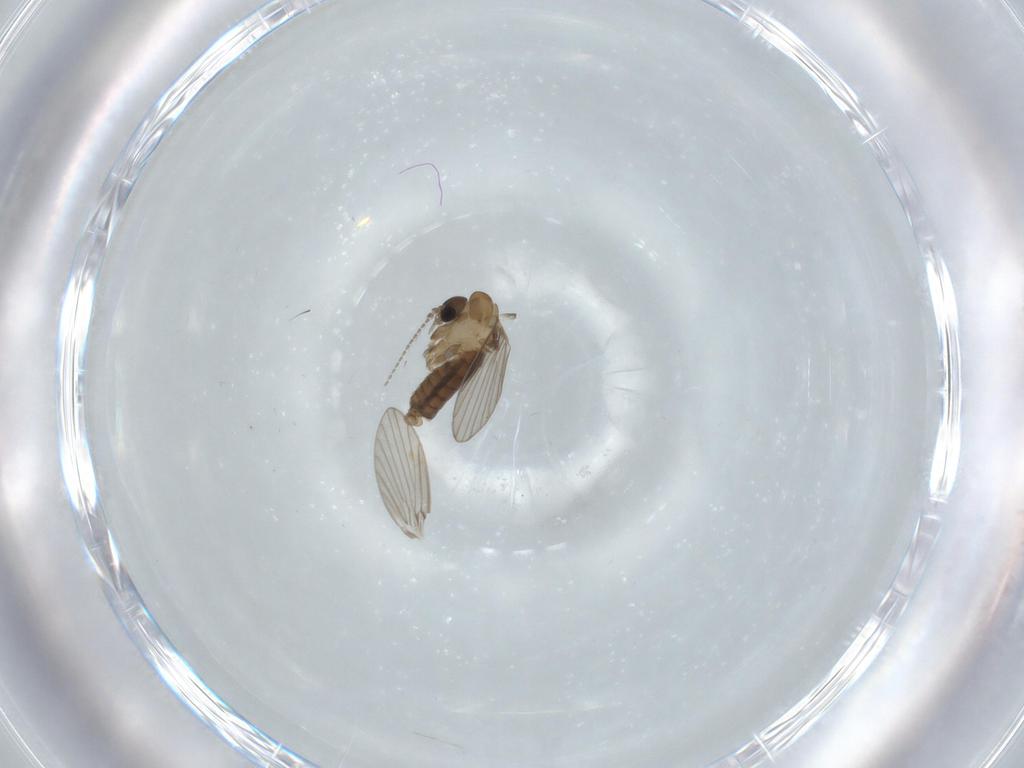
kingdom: Animalia
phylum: Arthropoda
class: Insecta
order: Diptera
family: Psychodidae
